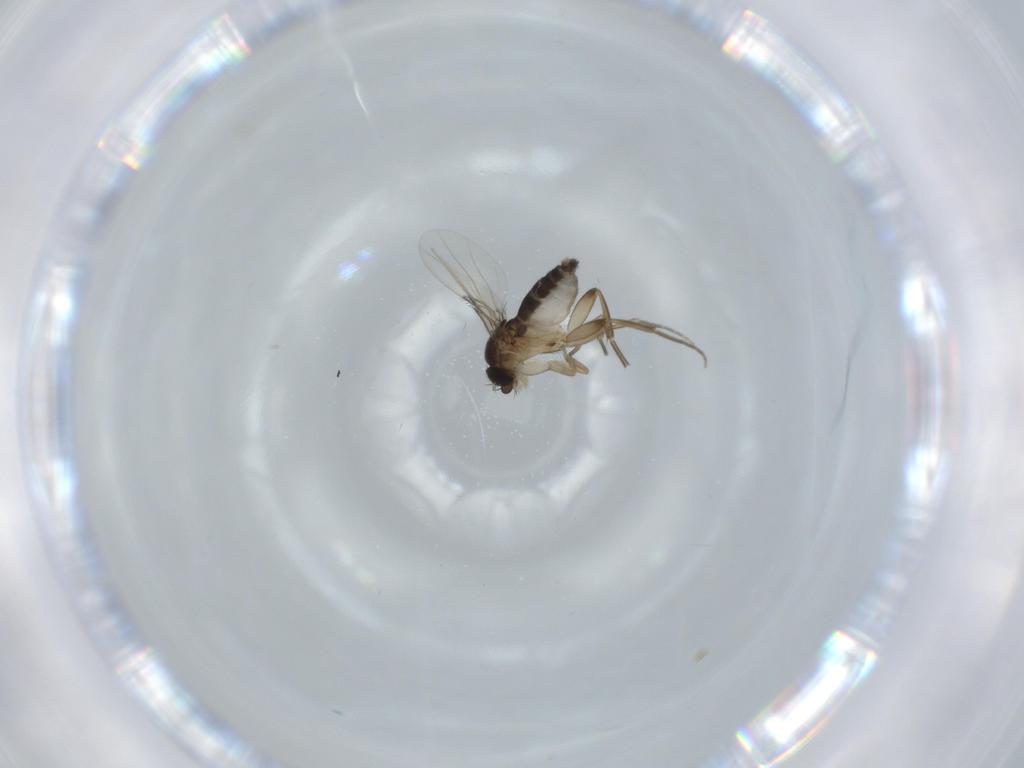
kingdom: Animalia
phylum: Arthropoda
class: Insecta
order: Diptera
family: Phoridae
